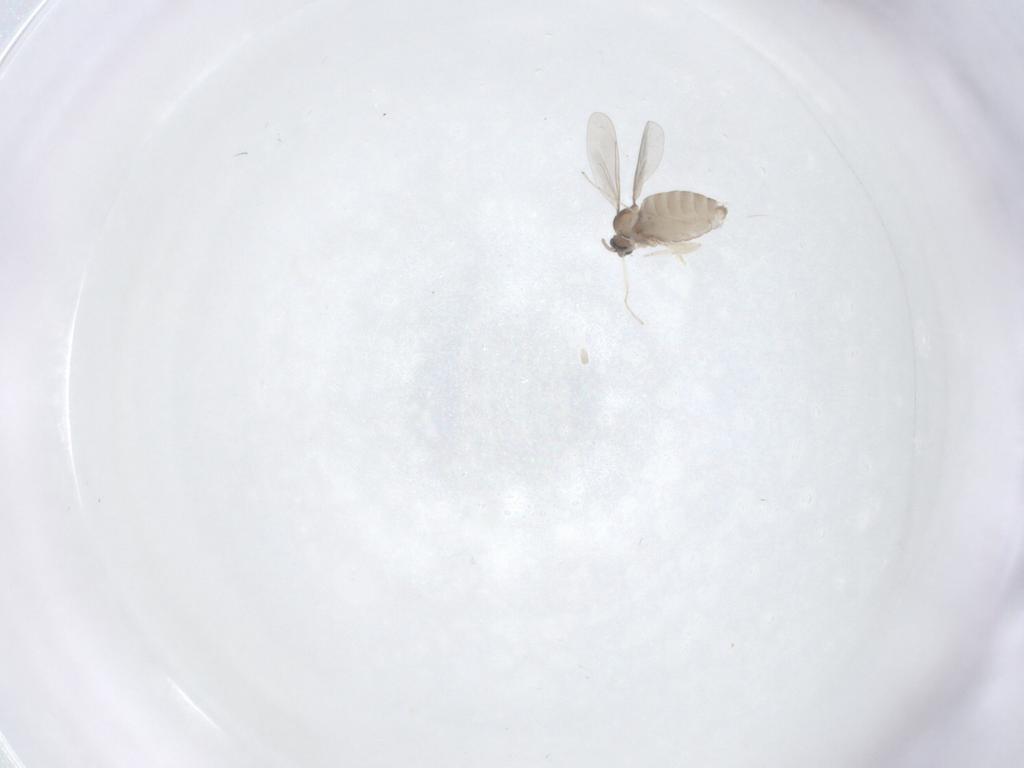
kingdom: Animalia
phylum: Arthropoda
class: Insecta
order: Diptera
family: Cecidomyiidae
